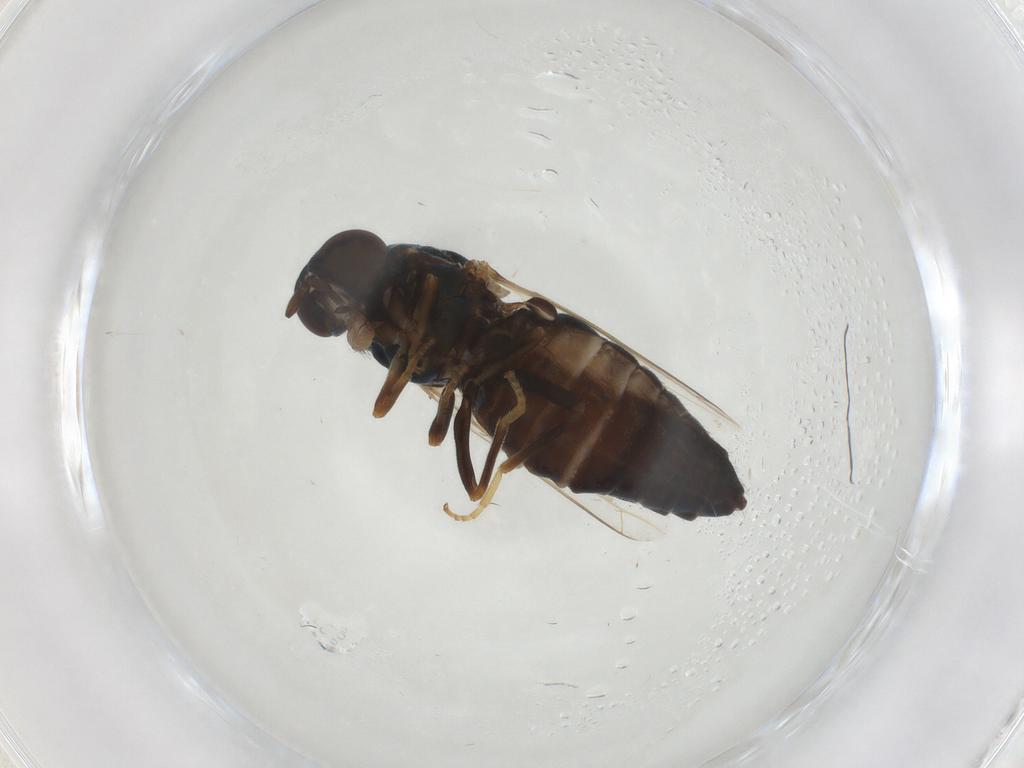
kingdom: Animalia
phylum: Arthropoda
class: Insecta
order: Diptera
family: Scenopinidae
